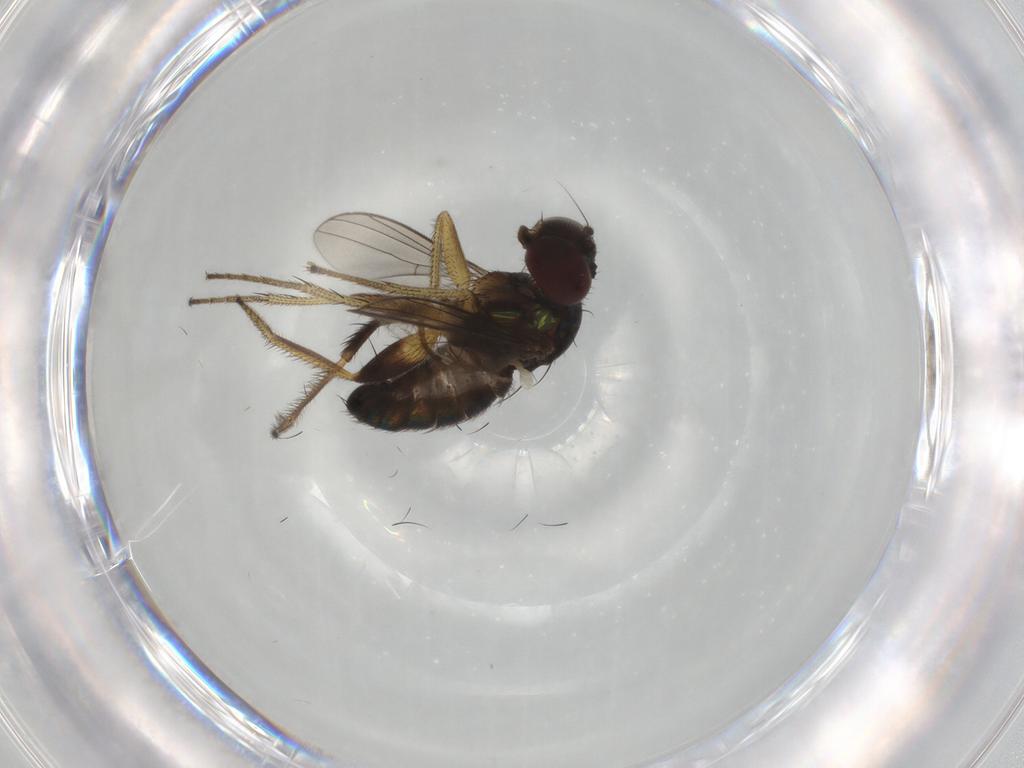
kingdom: Animalia
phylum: Arthropoda
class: Insecta
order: Diptera
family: Dolichopodidae
